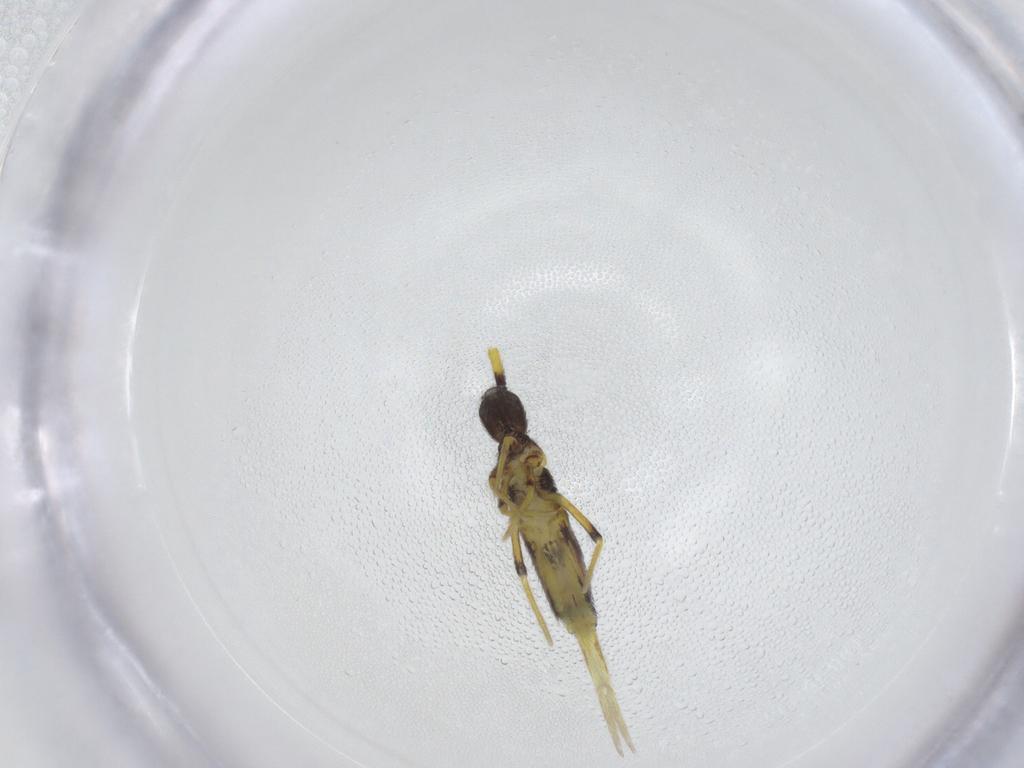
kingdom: Animalia
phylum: Arthropoda
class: Collembola
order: Entomobryomorpha
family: Entomobryidae
